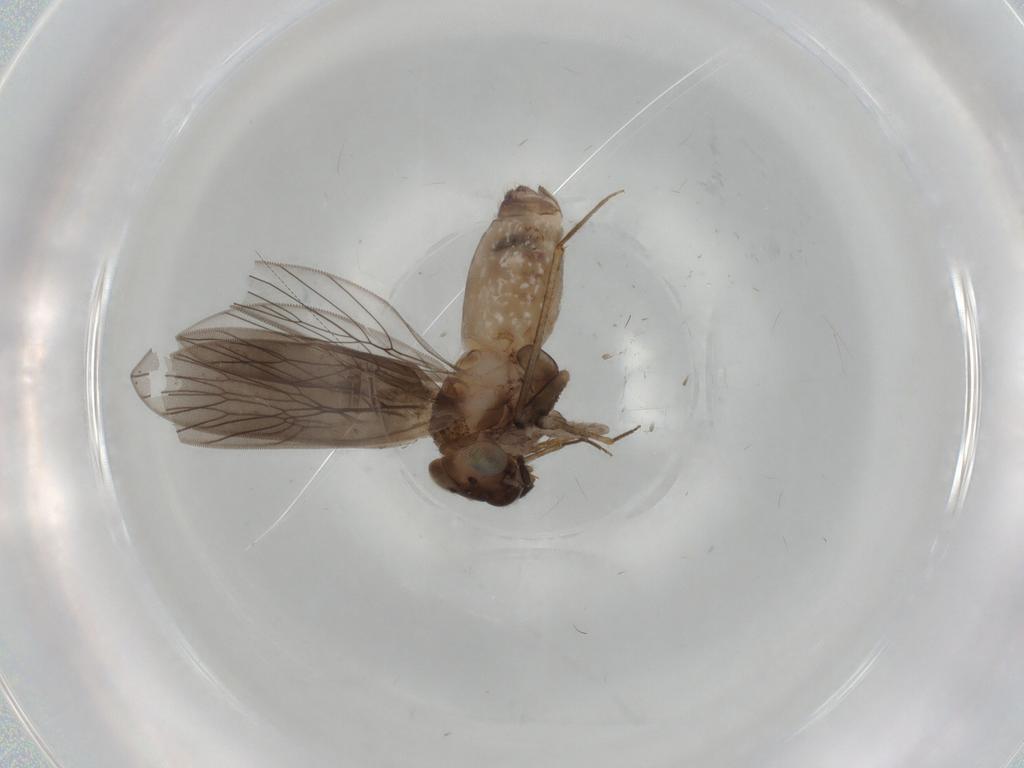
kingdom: Animalia
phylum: Arthropoda
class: Insecta
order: Psocodea
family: Lepidopsocidae
